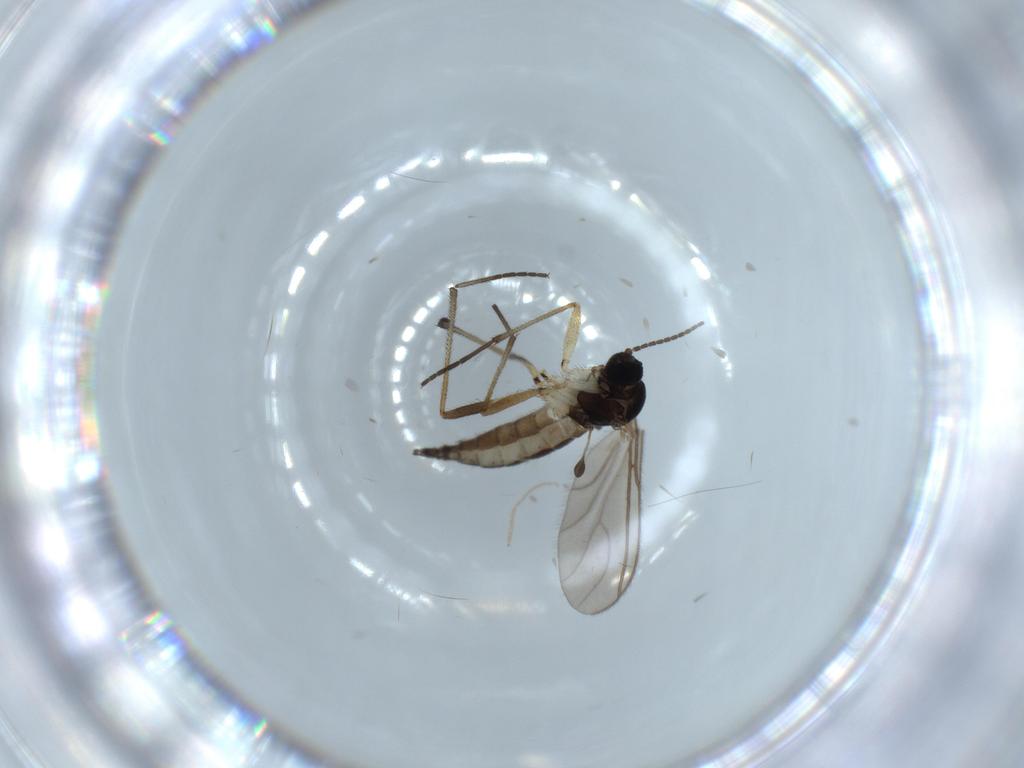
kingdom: Animalia
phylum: Arthropoda
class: Insecta
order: Diptera
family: Sciaridae
